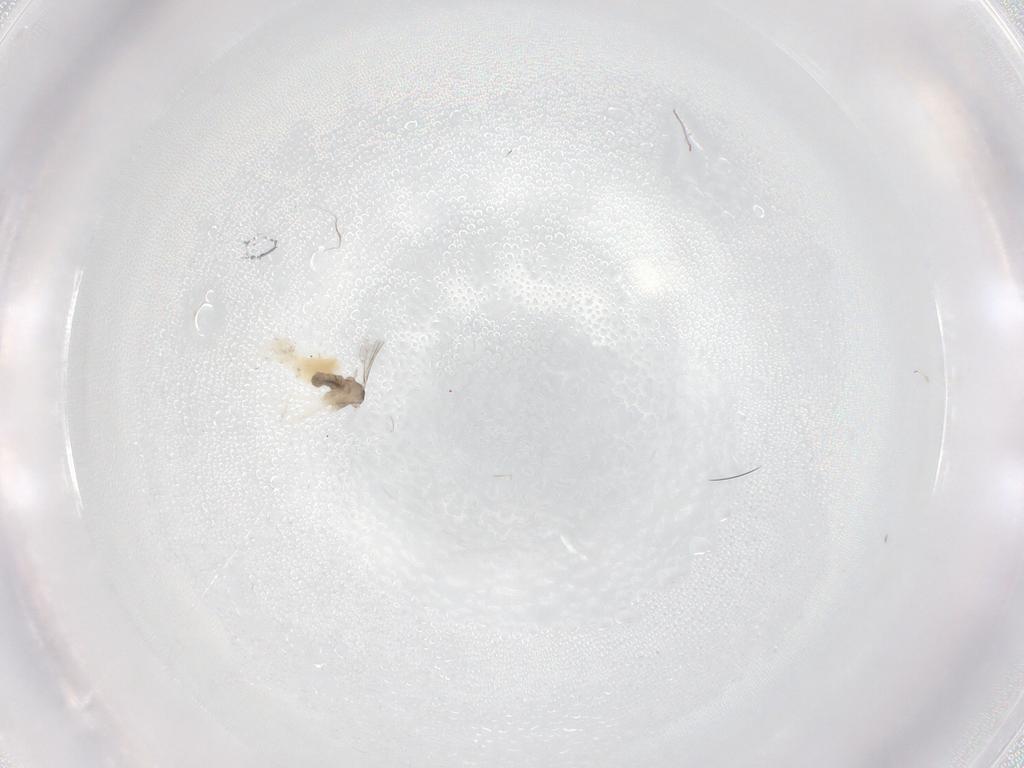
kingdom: Animalia
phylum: Arthropoda
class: Insecta
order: Diptera
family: Cecidomyiidae
